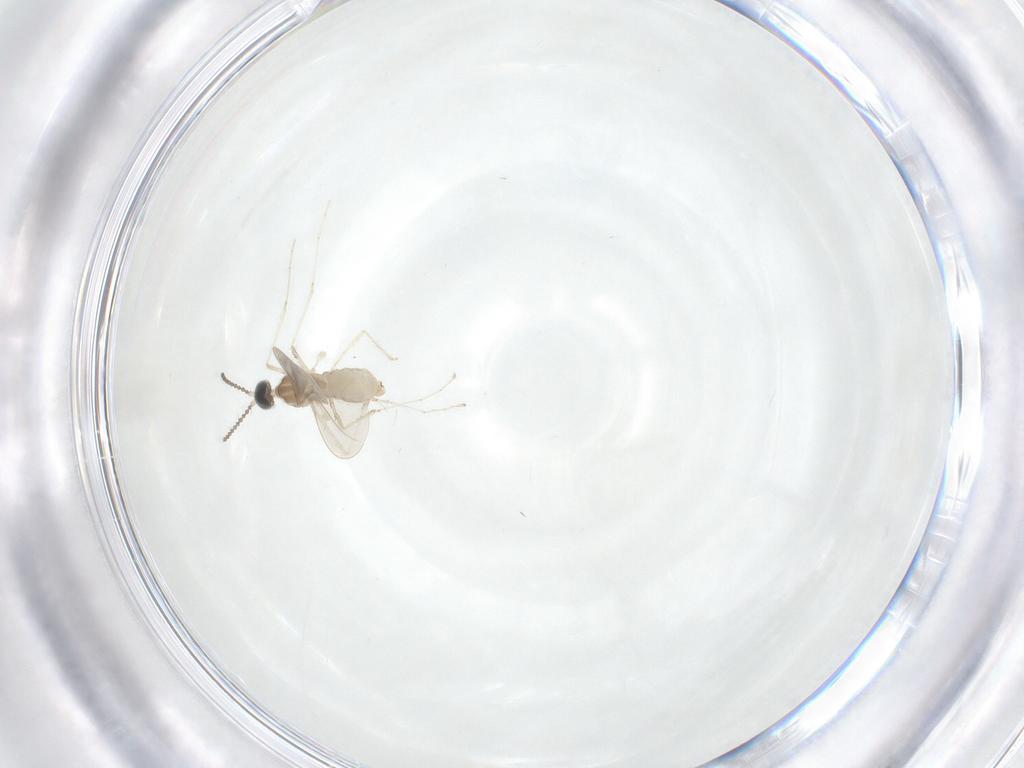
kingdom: Animalia
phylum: Arthropoda
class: Insecta
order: Diptera
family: Cecidomyiidae
